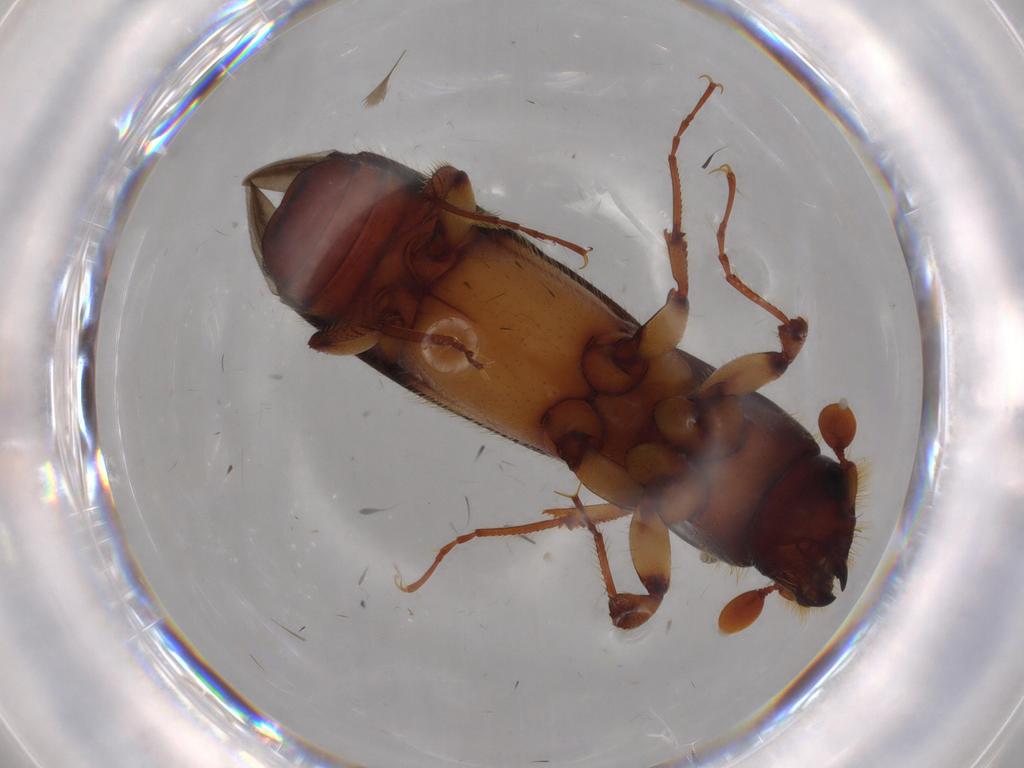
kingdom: Animalia
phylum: Arthropoda
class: Insecta
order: Coleoptera
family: Curculionidae
